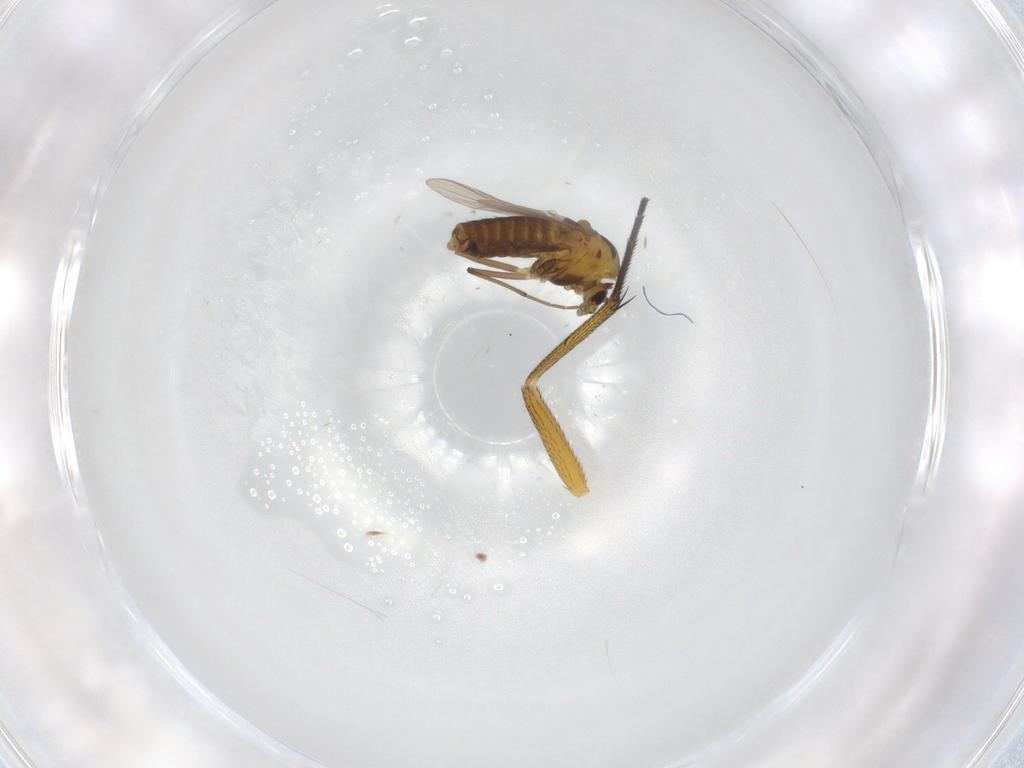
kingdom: Animalia
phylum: Arthropoda
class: Insecta
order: Diptera
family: Muscidae
